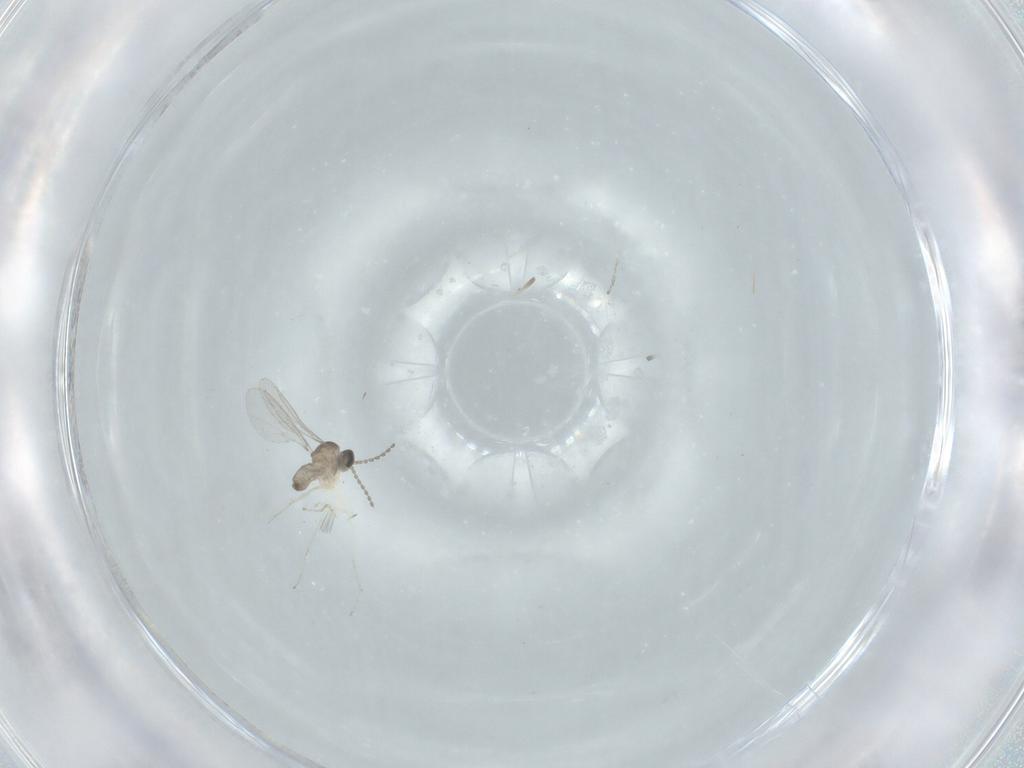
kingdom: Animalia
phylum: Arthropoda
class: Insecta
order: Diptera
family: Cecidomyiidae
